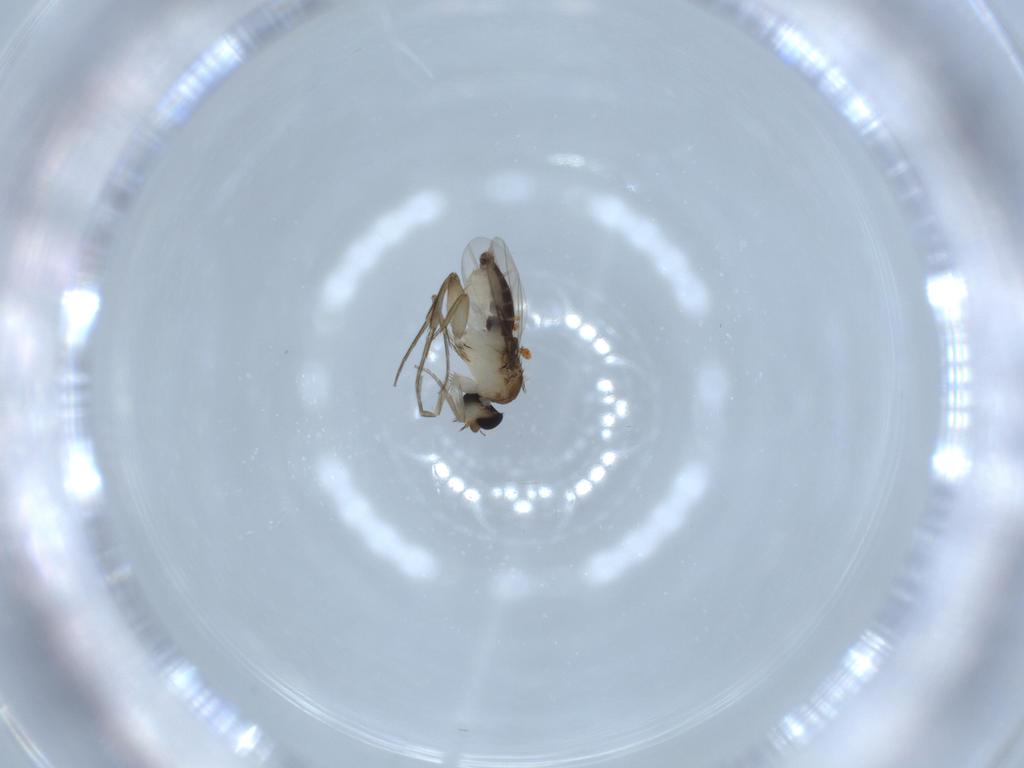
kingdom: Animalia
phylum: Arthropoda
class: Insecta
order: Diptera
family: Phoridae
